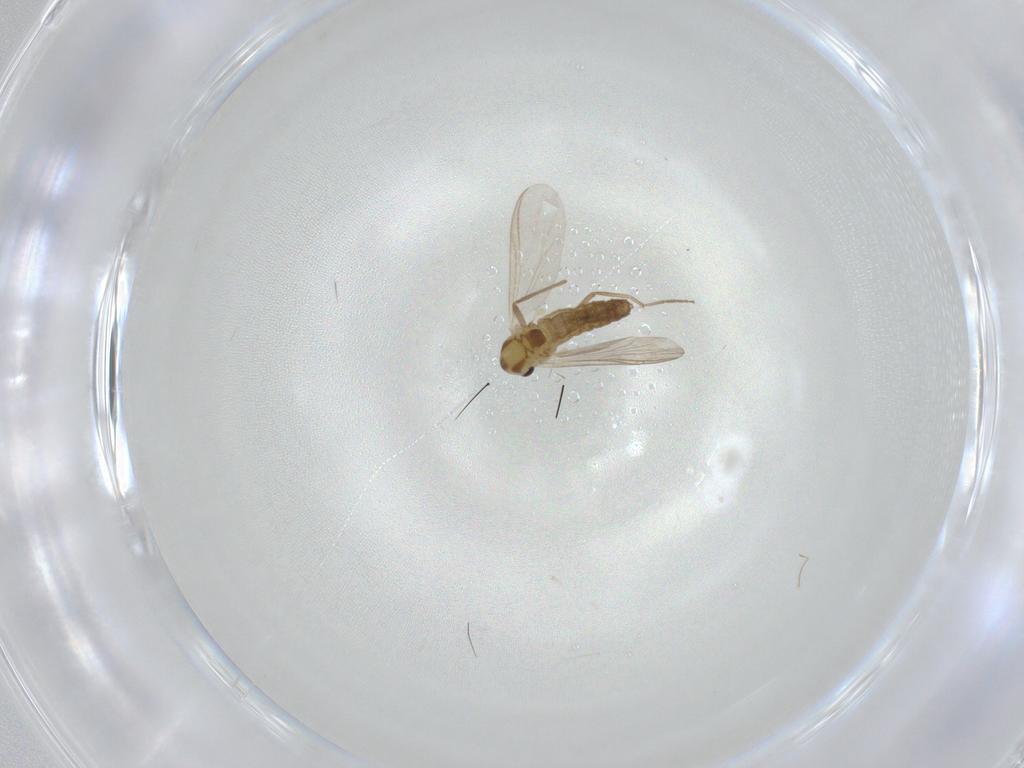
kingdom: Animalia
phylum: Arthropoda
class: Insecta
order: Diptera
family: Chironomidae
